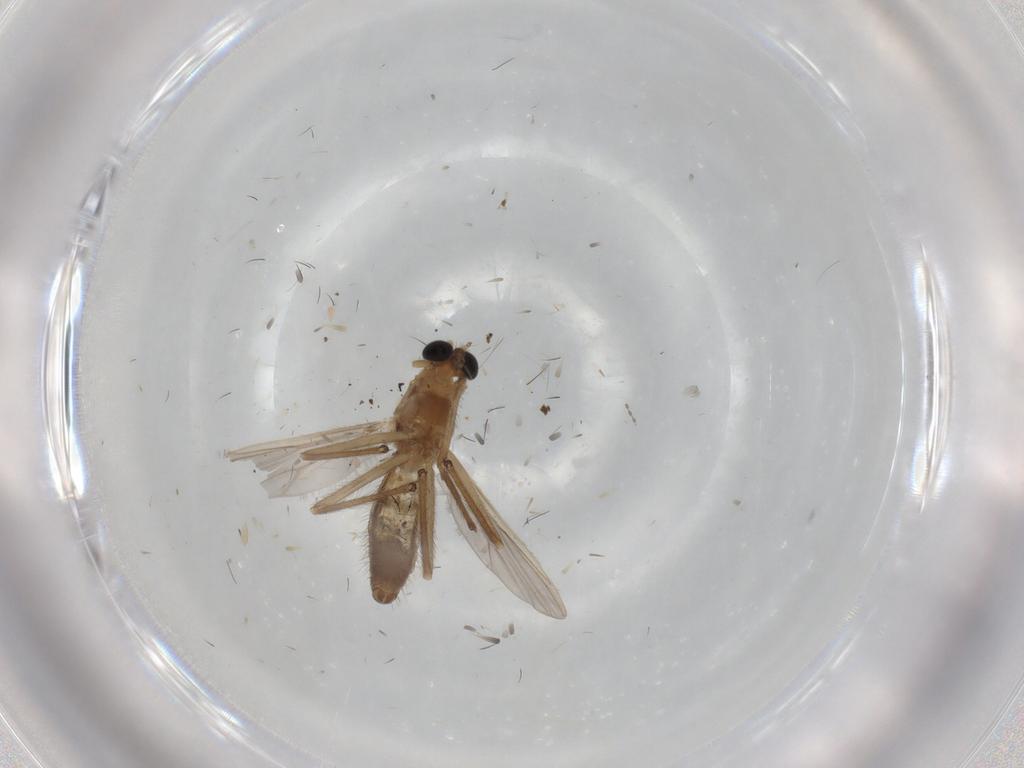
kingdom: Animalia
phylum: Arthropoda
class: Insecta
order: Diptera
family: Chironomidae
